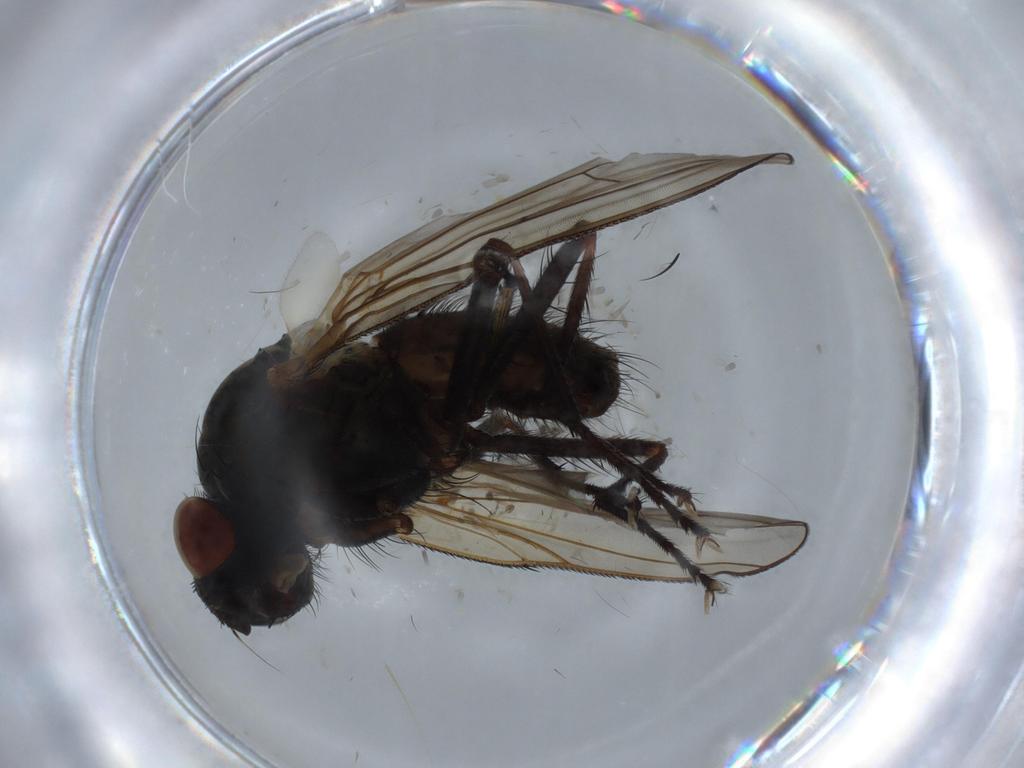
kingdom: Animalia
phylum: Arthropoda
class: Insecta
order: Diptera
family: Anthomyiidae
